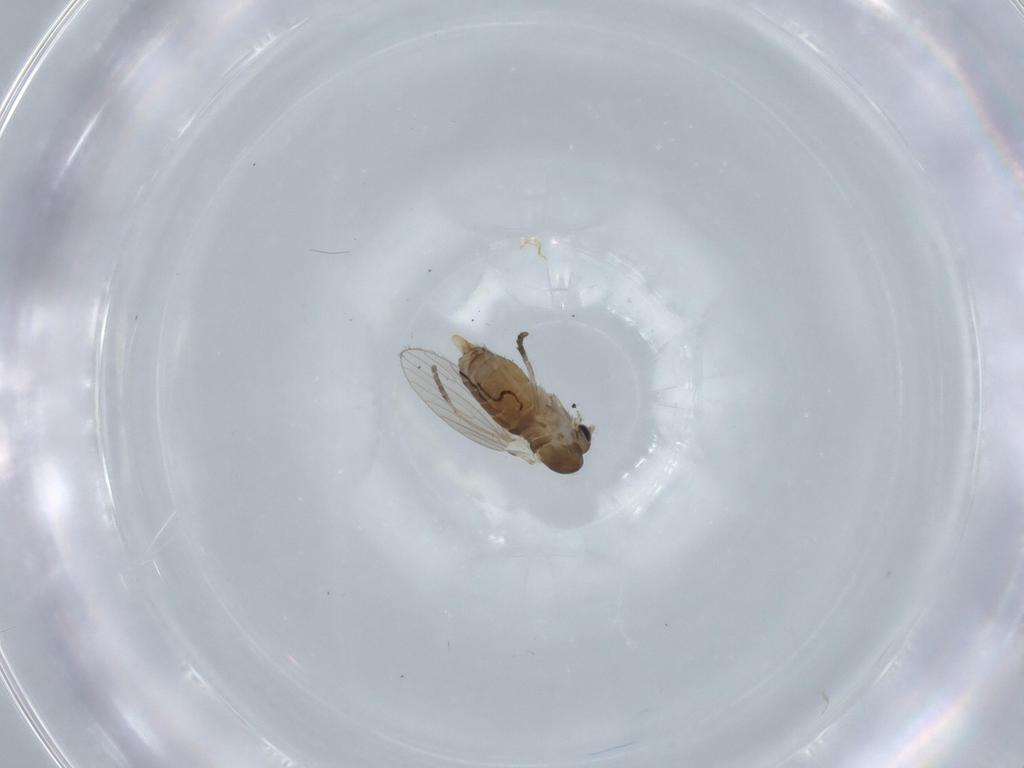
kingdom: Animalia
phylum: Arthropoda
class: Insecta
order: Diptera
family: Psychodidae
